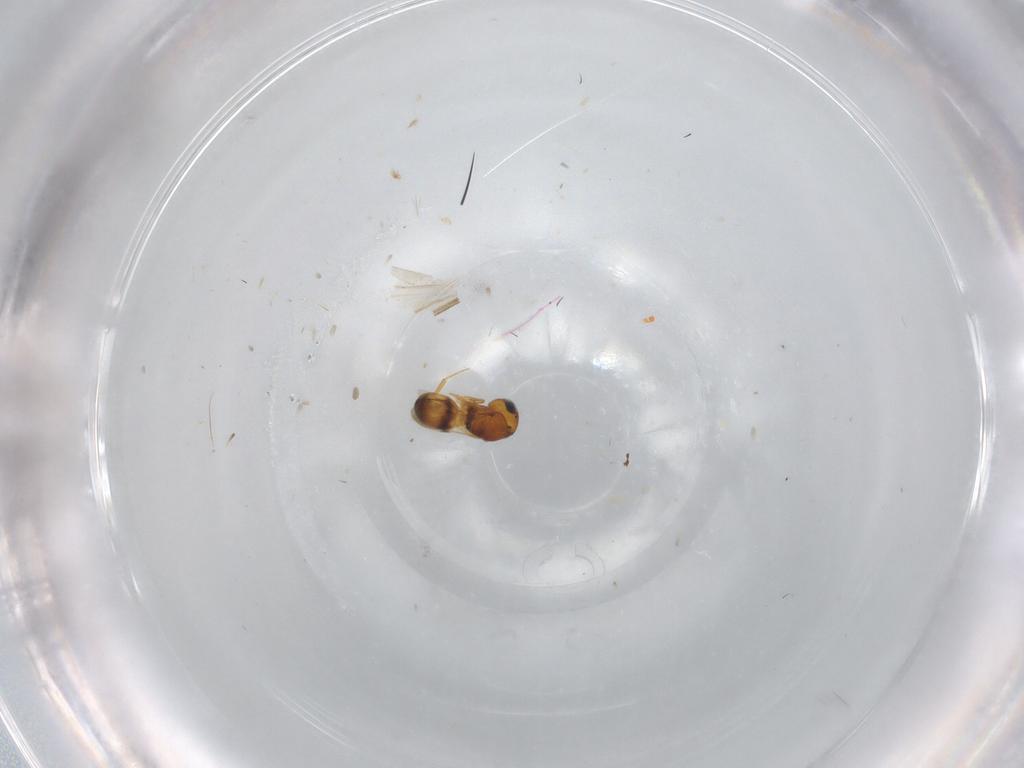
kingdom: Animalia
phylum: Arthropoda
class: Insecta
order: Hymenoptera
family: Scelionidae
